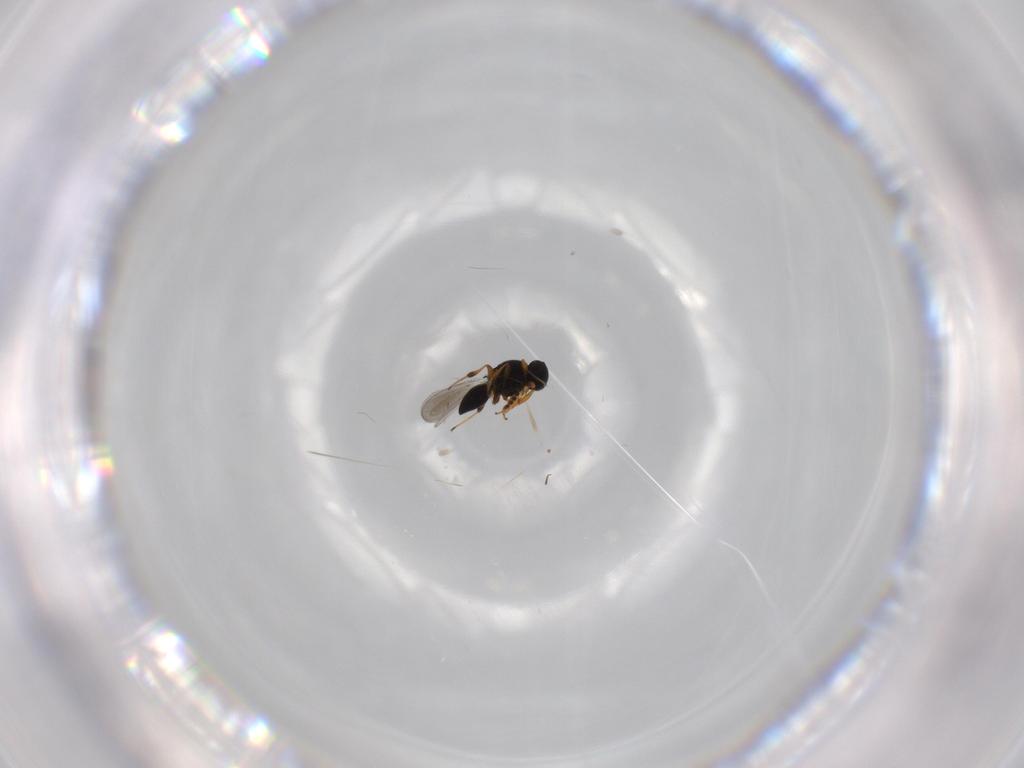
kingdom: Animalia
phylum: Arthropoda
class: Insecta
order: Hymenoptera
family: Platygastridae
